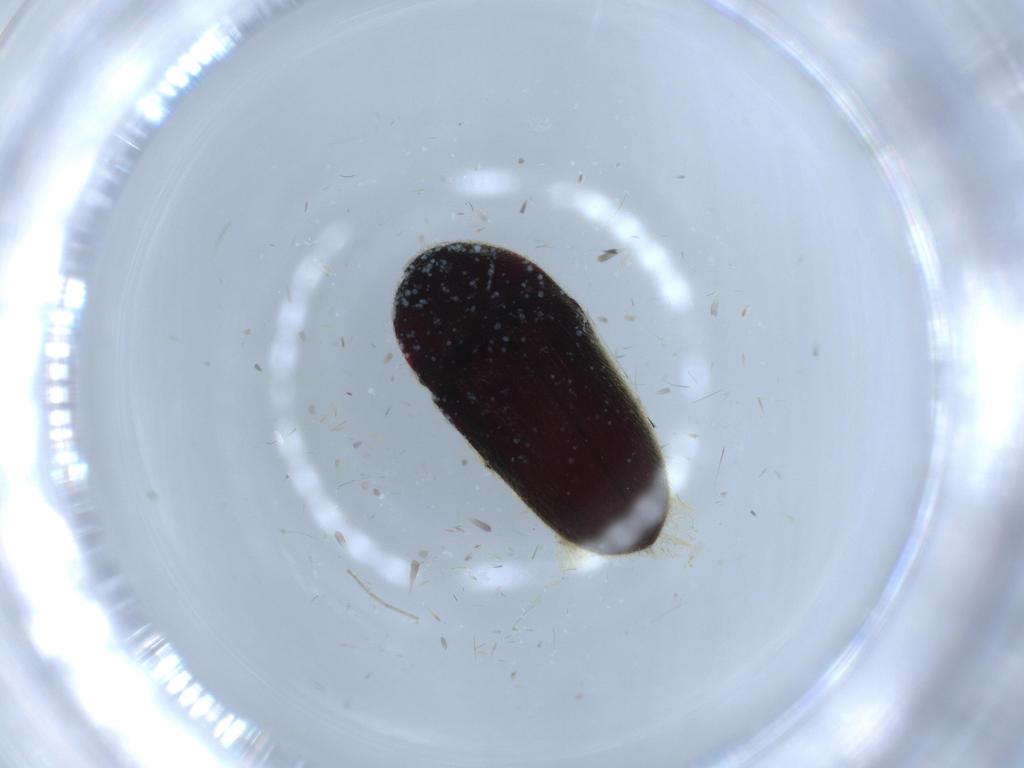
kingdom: Animalia
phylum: Arthropoda
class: Insecta
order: Coleoptera
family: Throscidae
